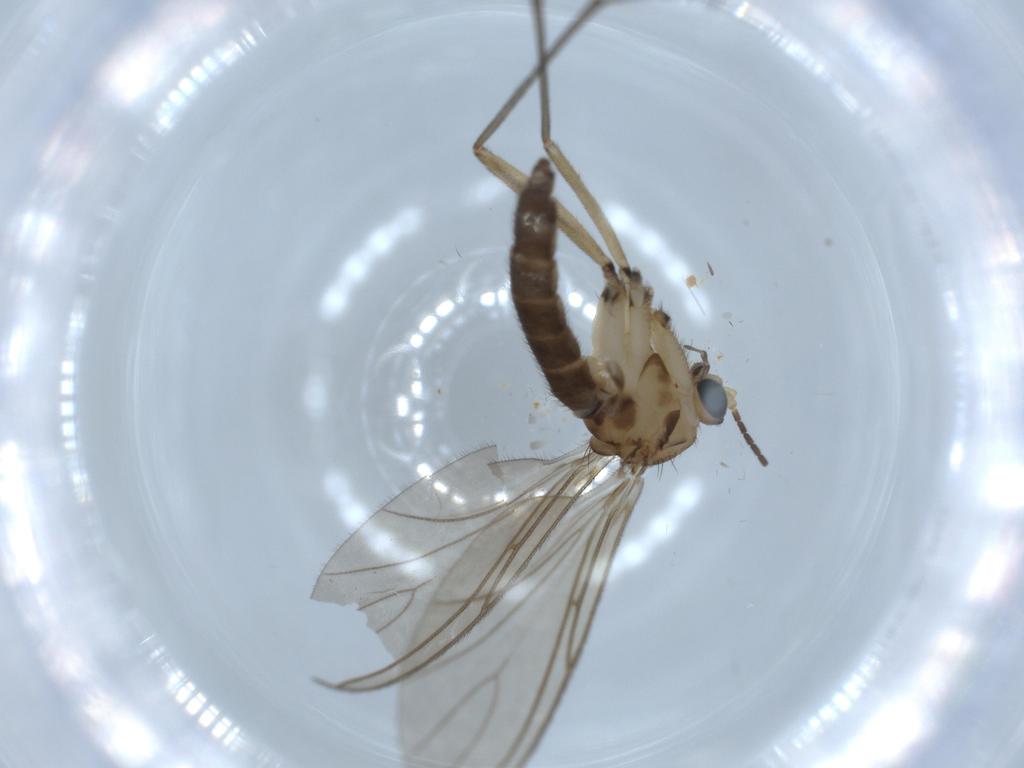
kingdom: Animalia
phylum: Arthropoda
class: Insecta
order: Diptera
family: Sciaridae
